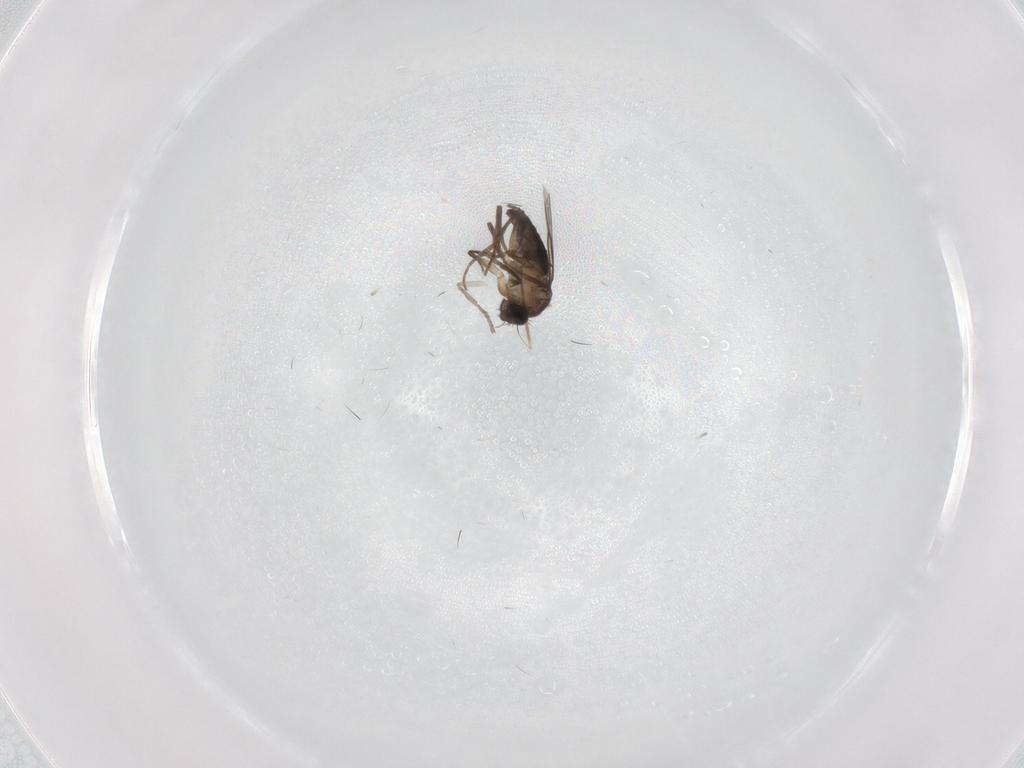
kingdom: Animalia
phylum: Arthropoda
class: Insecta
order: Diptera
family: Phoridae
